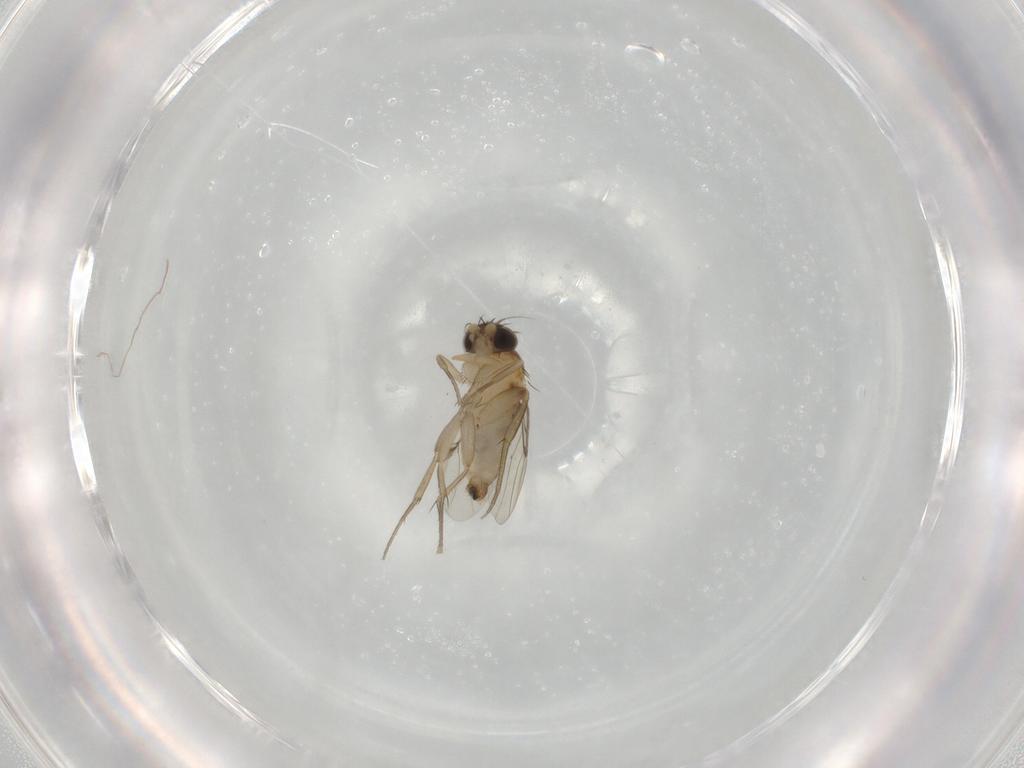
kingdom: Animalia
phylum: Arthropoda
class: Insecta
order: Diptera
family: Phoridae
